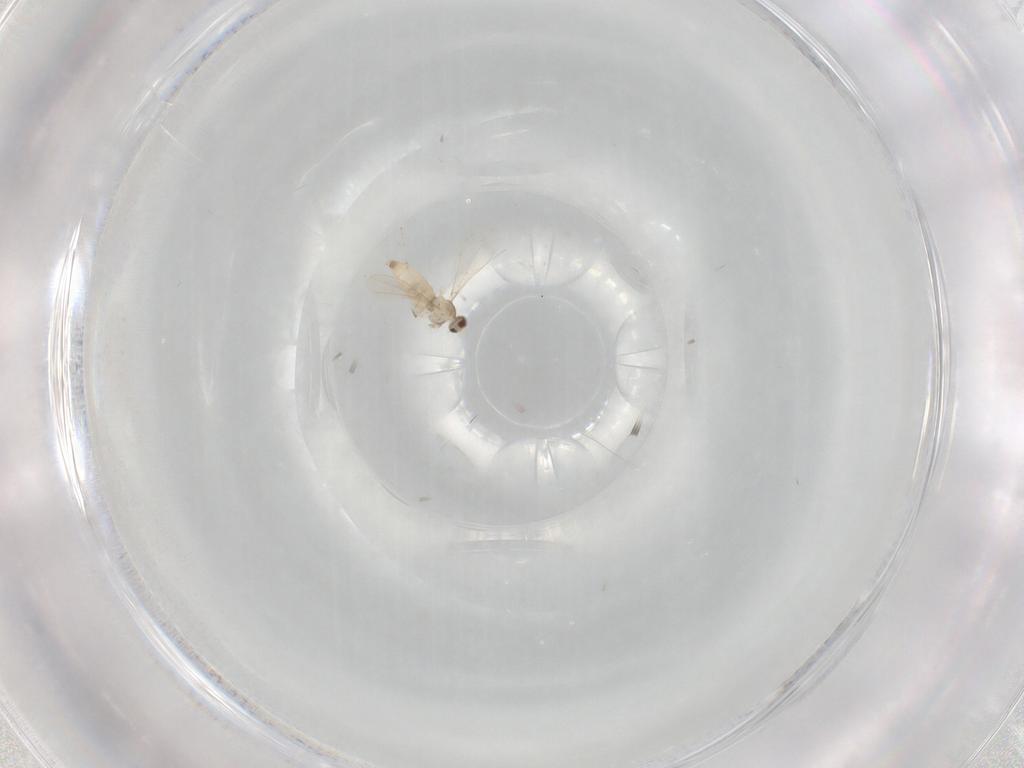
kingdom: Animalia
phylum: Arthropoda
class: Insecta
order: Diptera
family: Cecidomyiidae
